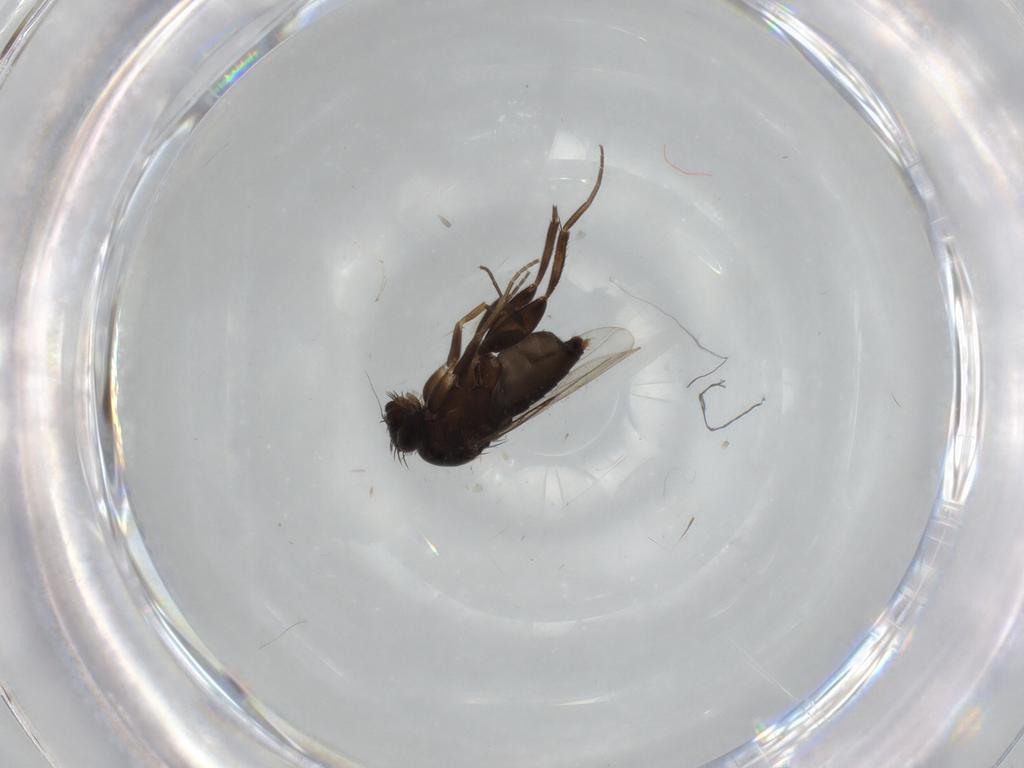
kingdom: Animalia
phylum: Arthropoda
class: Insecta
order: Diptera
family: Phoridae
